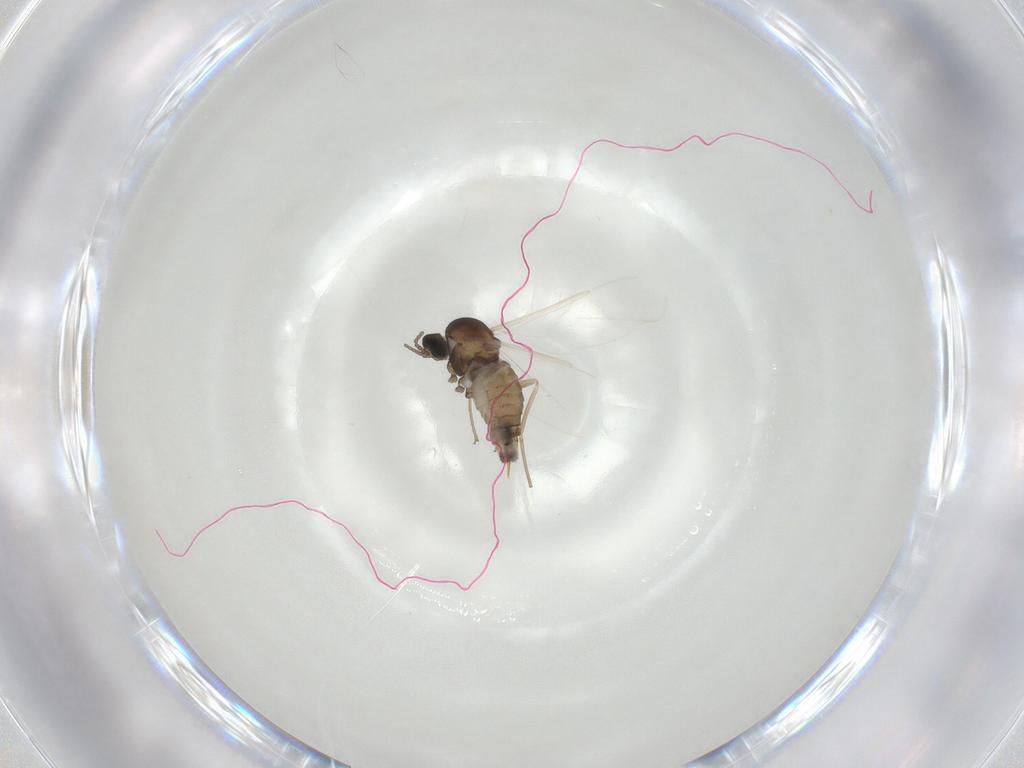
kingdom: Animalia
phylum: Arthropoda
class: Insecta
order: Diptera
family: Cecidomyiidae
